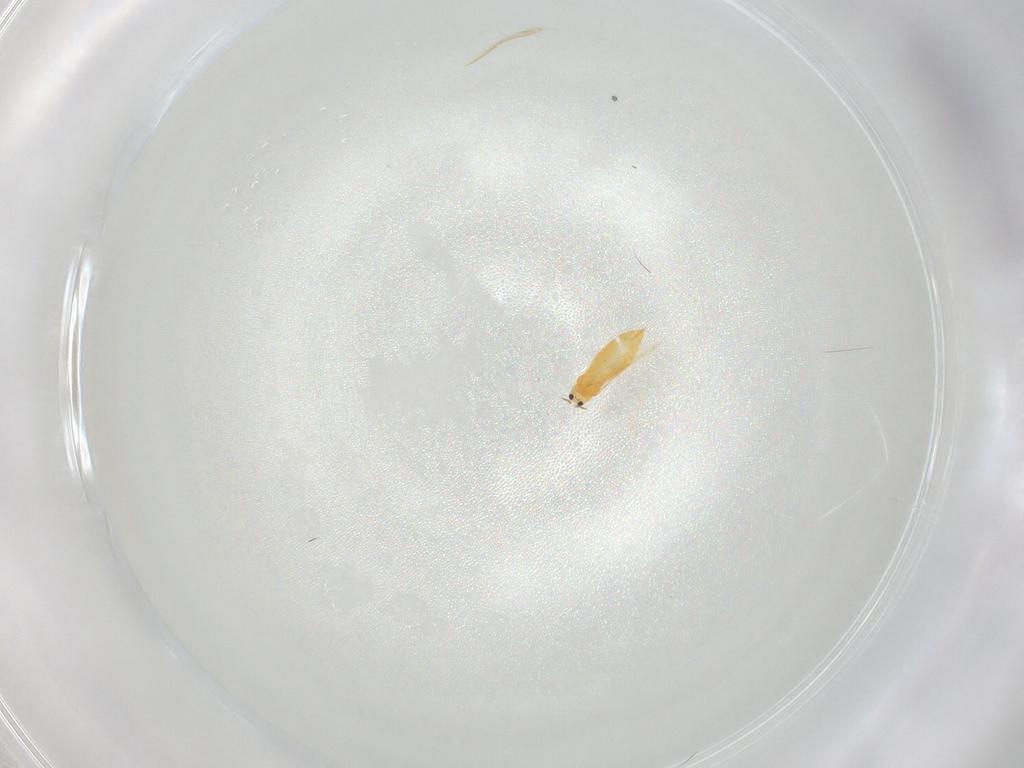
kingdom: Animalia
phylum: Arthropoda
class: Insecta
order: Thysanoptera
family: Thripidae
